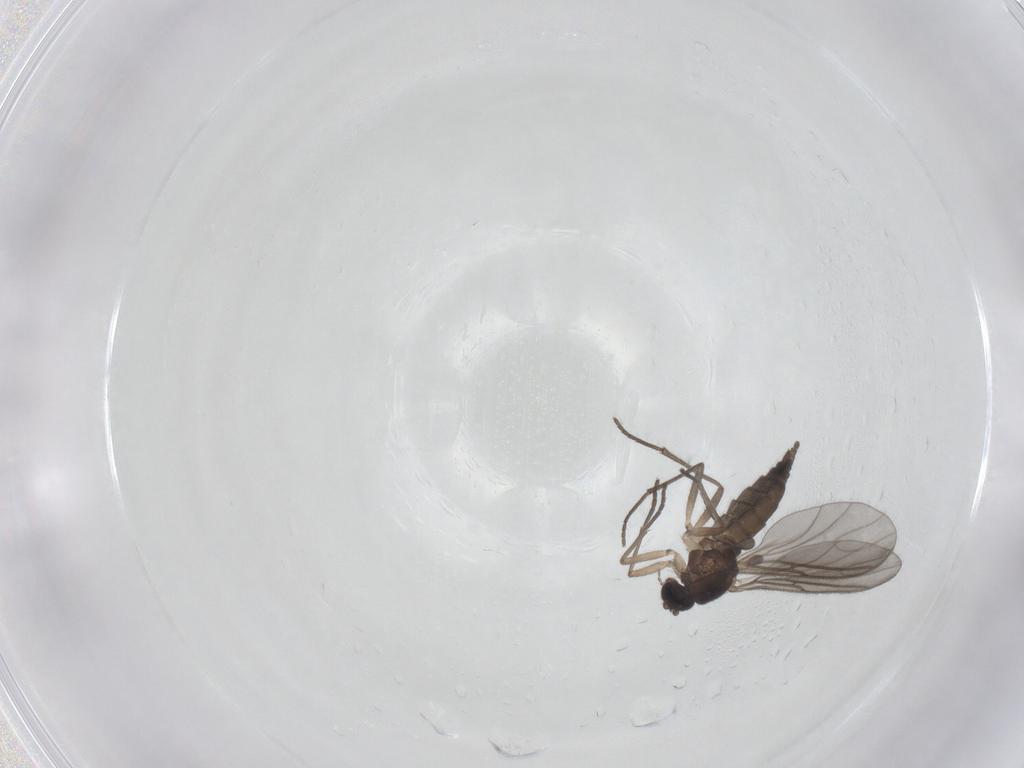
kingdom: Animalia
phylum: Arthropoda
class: Insecta
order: Diptera
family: Sciaridae
